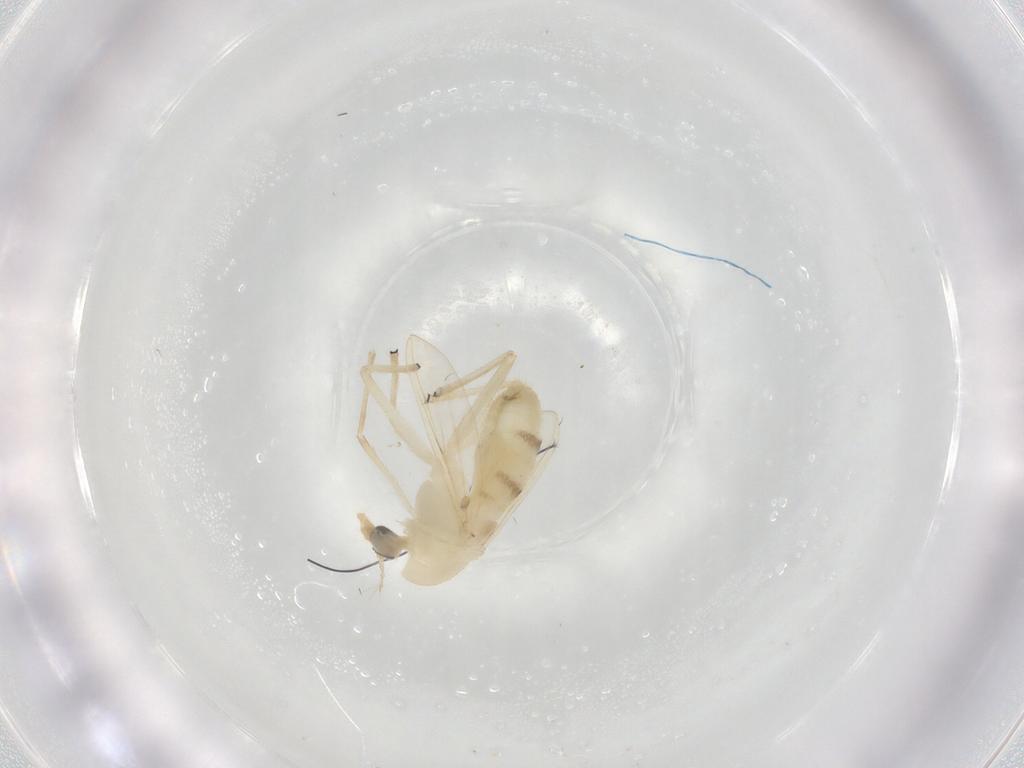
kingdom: Animalia
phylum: Arthropoda
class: Insecta
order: Diptera
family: Chironomidae
